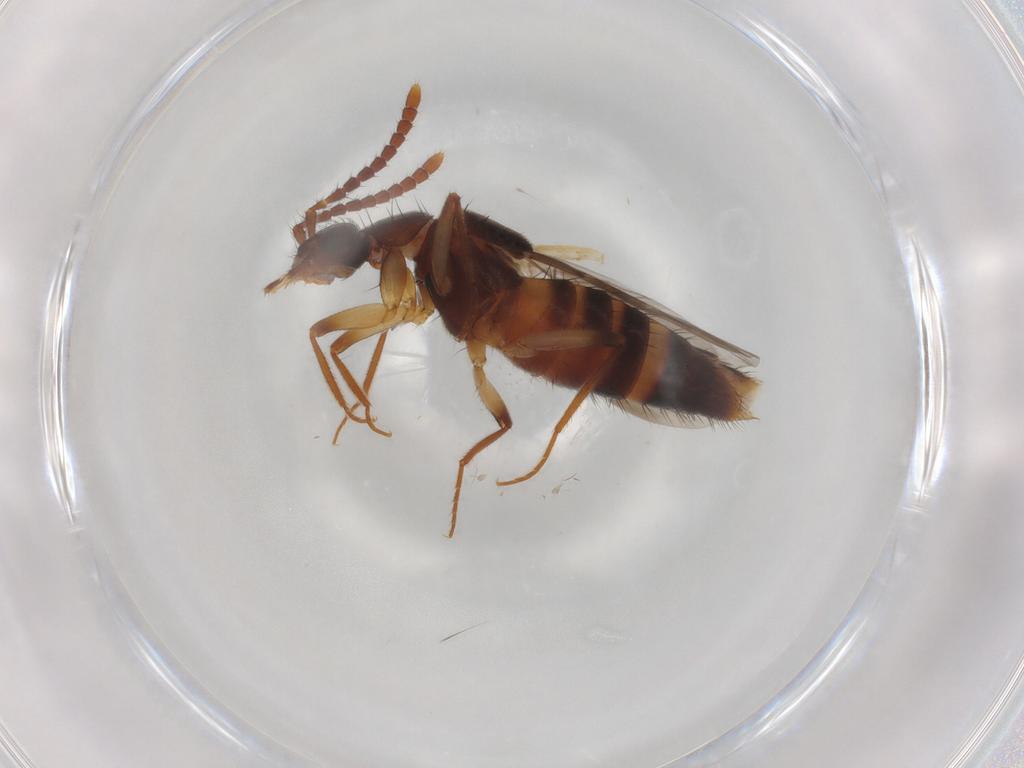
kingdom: Animalia
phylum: Arthropoda
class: Insecta
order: Coleoptera
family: Staphylinidae
